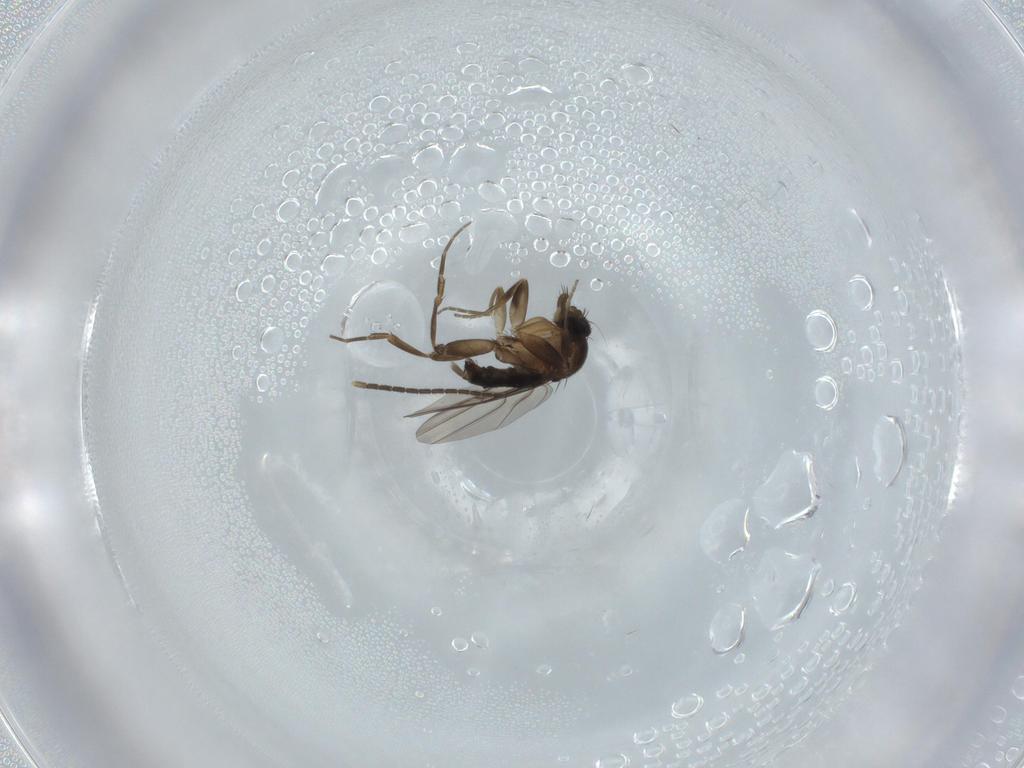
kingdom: Animalia
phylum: Arthropoda
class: Insecta
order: Diptera
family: Phoridae
